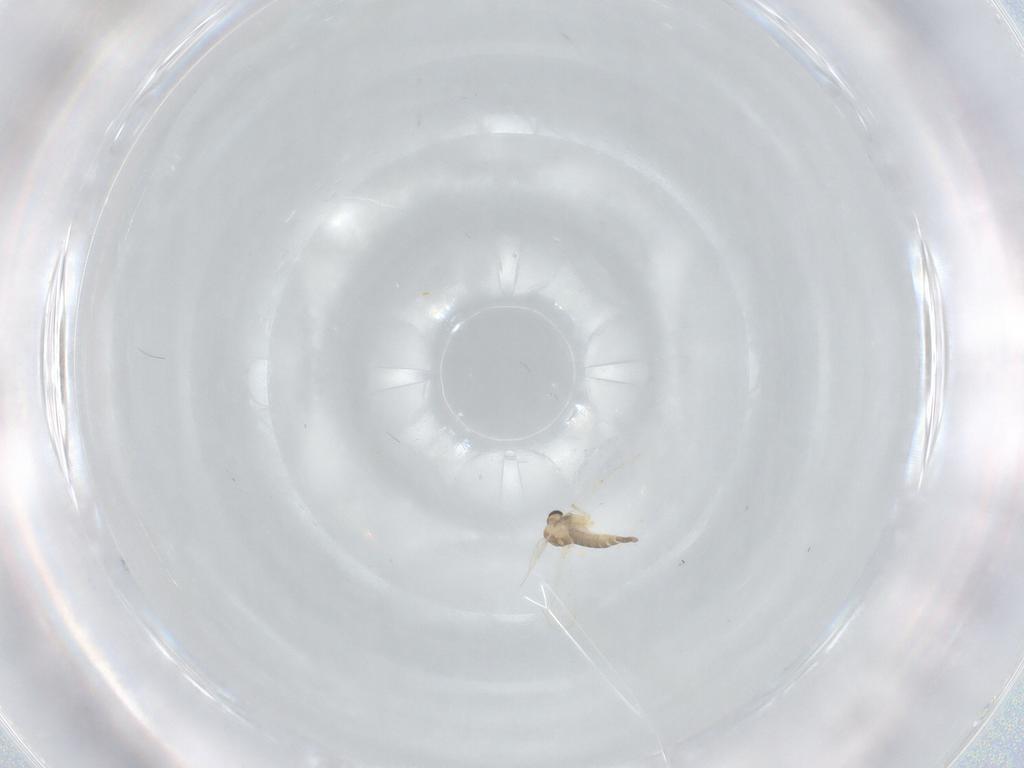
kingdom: Animalia
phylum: Arthropoda
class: Insecta
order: Diptera
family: Chironomidae
